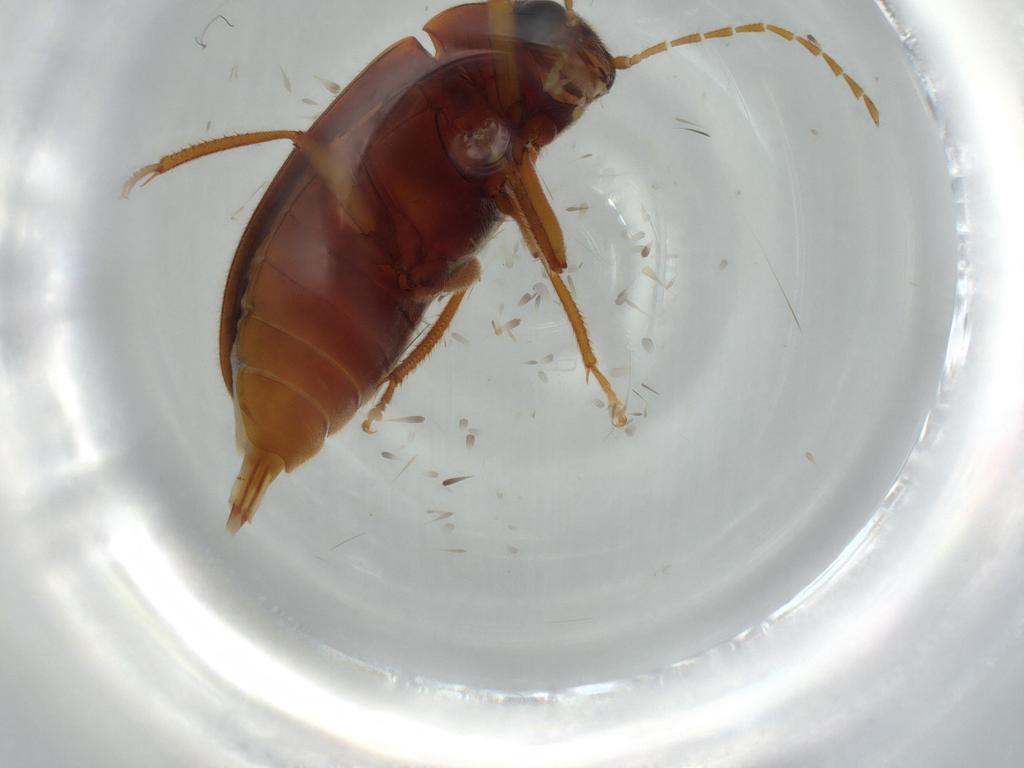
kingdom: Animalia
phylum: Arthropoda
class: Insecta
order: Coleoptera
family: Ptilodactylidae
